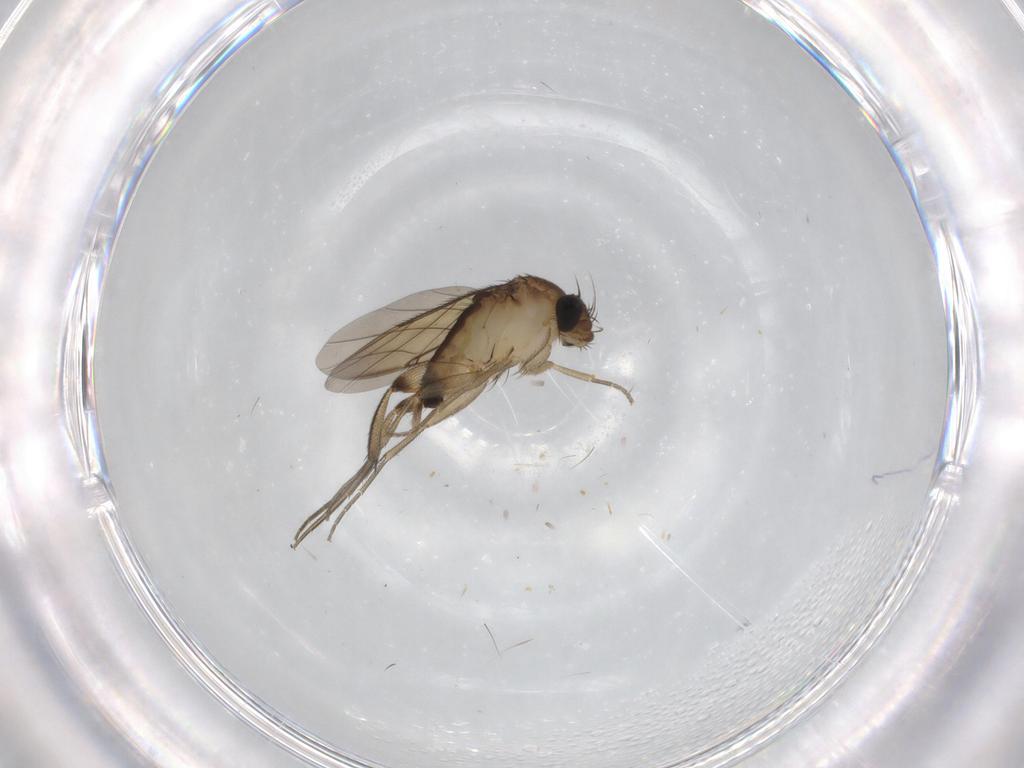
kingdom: Animalia
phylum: Arthropoda
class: Insecta
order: Diptera
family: Phoridae
